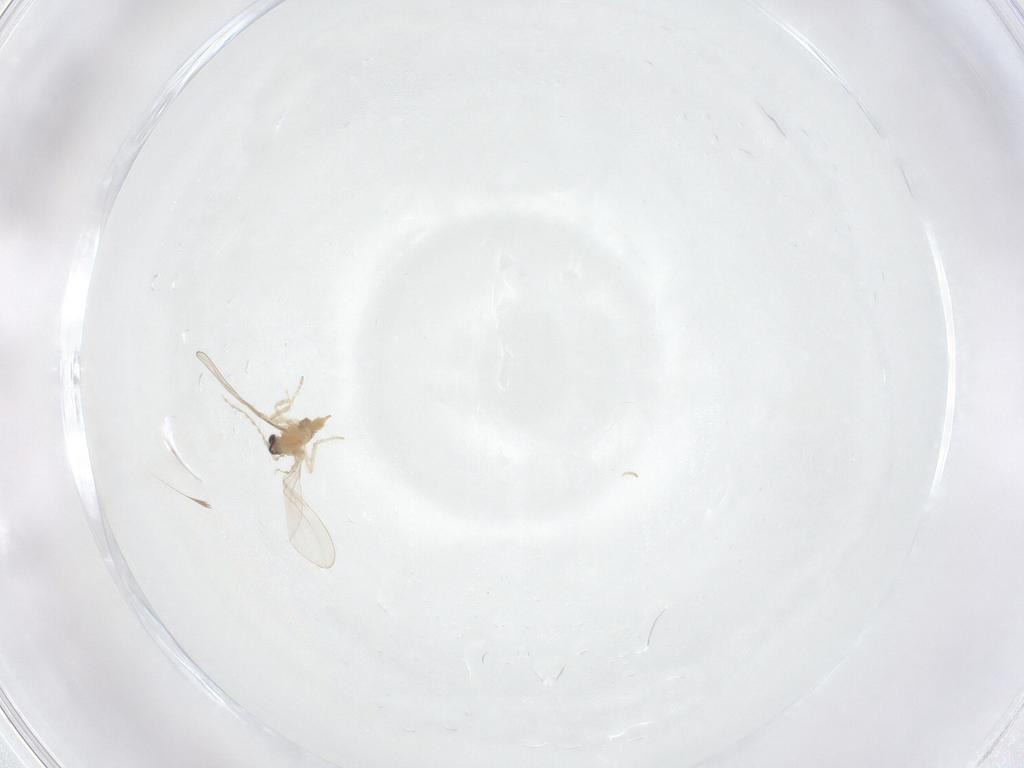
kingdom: Animalia
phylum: Arthropoda
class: Insecta
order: Diptera
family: Cecidomyiidae
